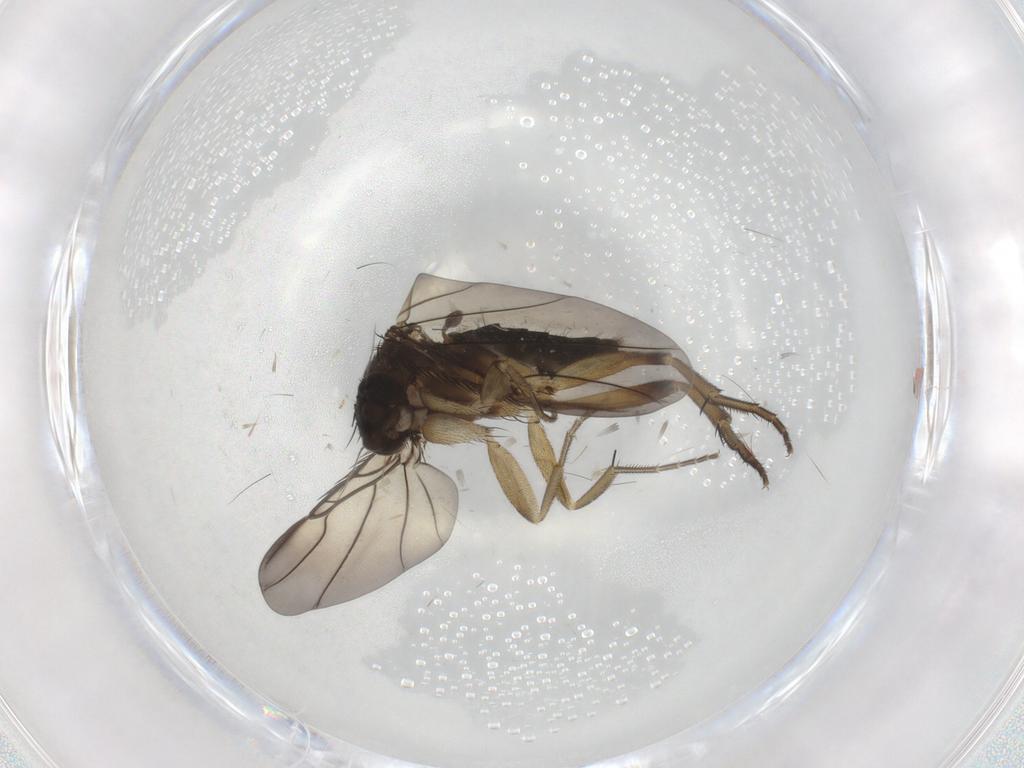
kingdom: Animalia
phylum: Arthropoda
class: Insecta
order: Diptera
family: Phoridae
